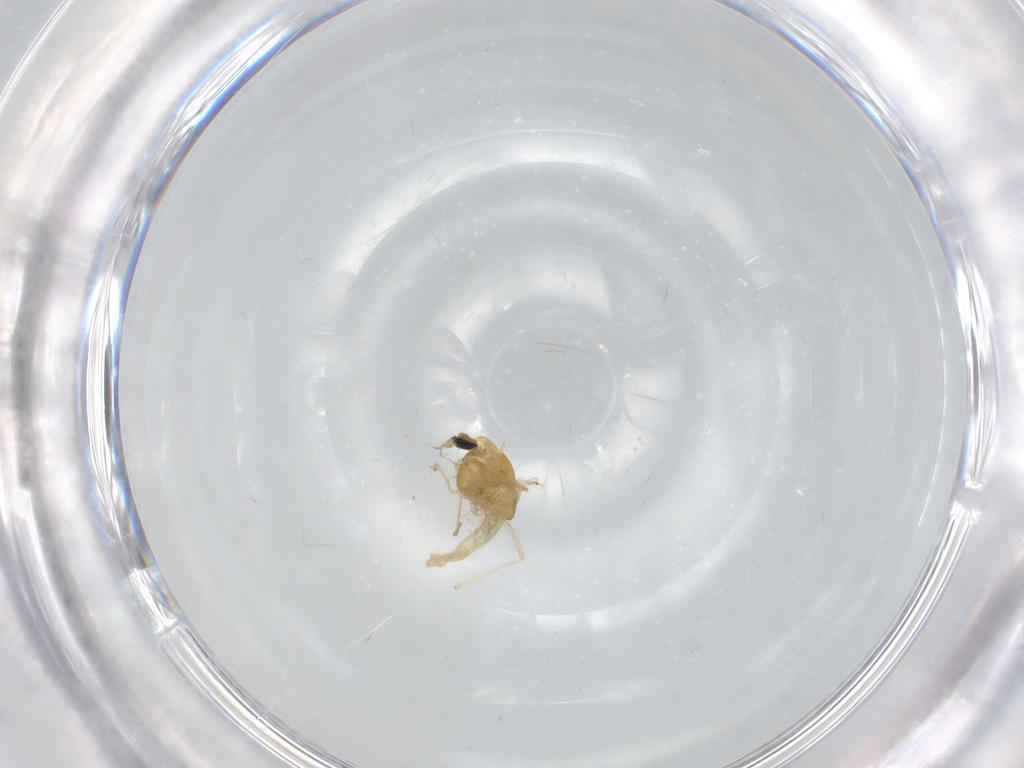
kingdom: Animalia
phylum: Arthropoda
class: Insecta
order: Diptera
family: Chironomidae
